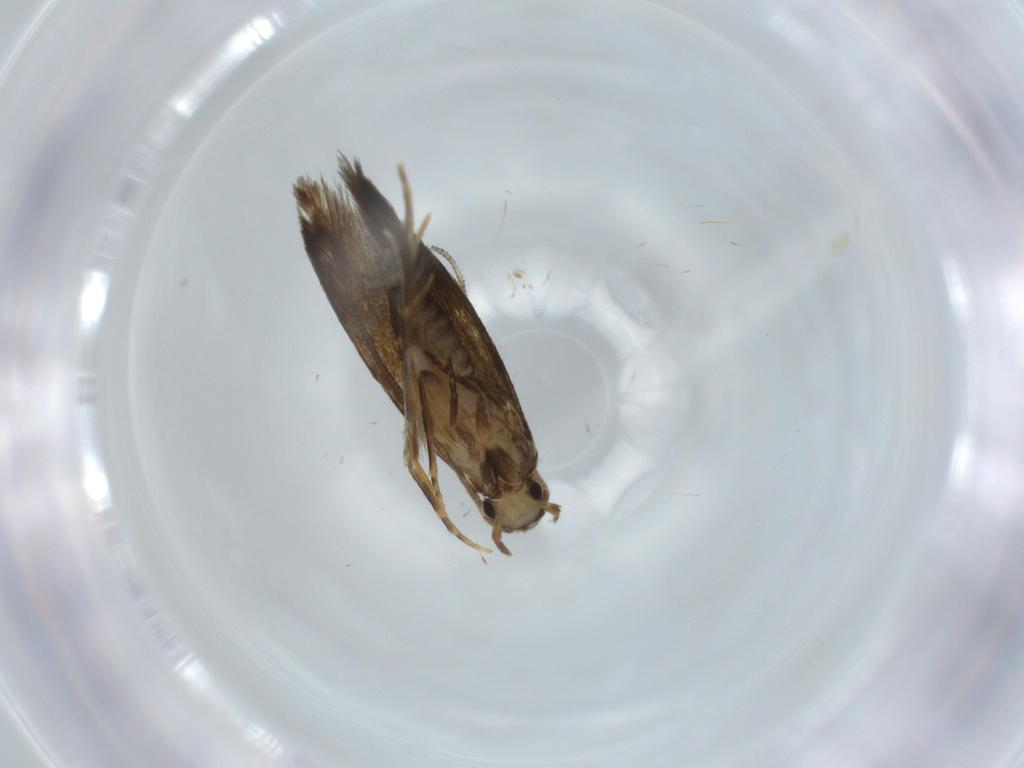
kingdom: Animalia
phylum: Arthropoda
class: Insecta
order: Lepidoptera
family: Tineidae
